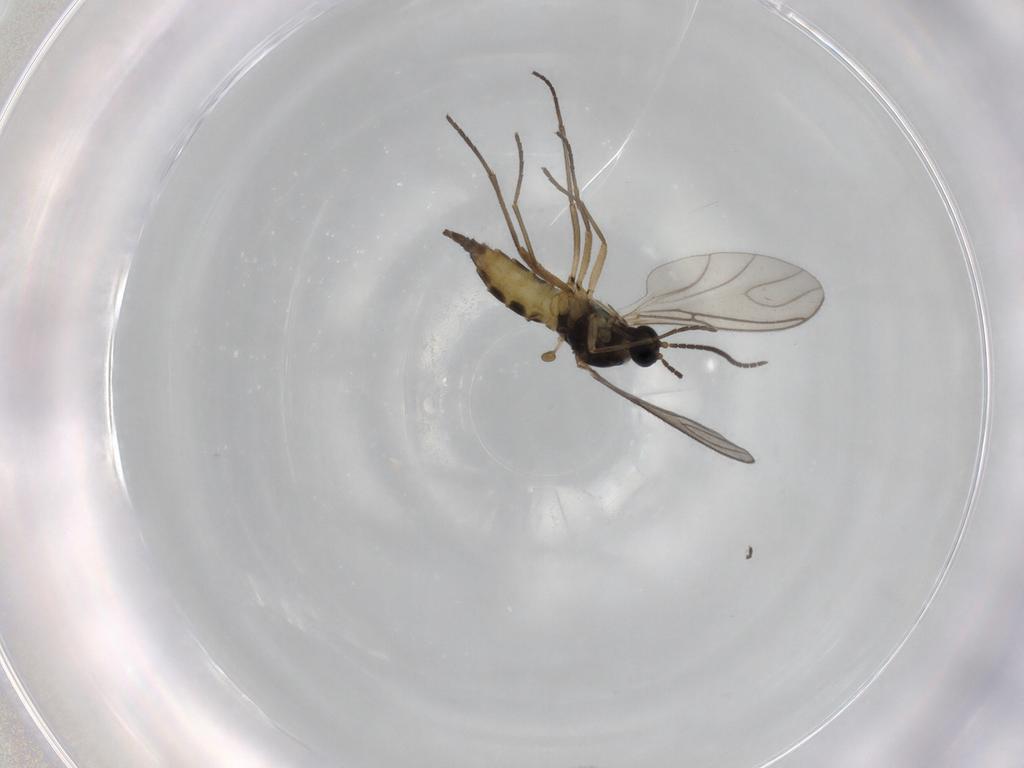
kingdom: Animalia
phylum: Arthropoda
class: Insecta
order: Diptera
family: Sciaridae
